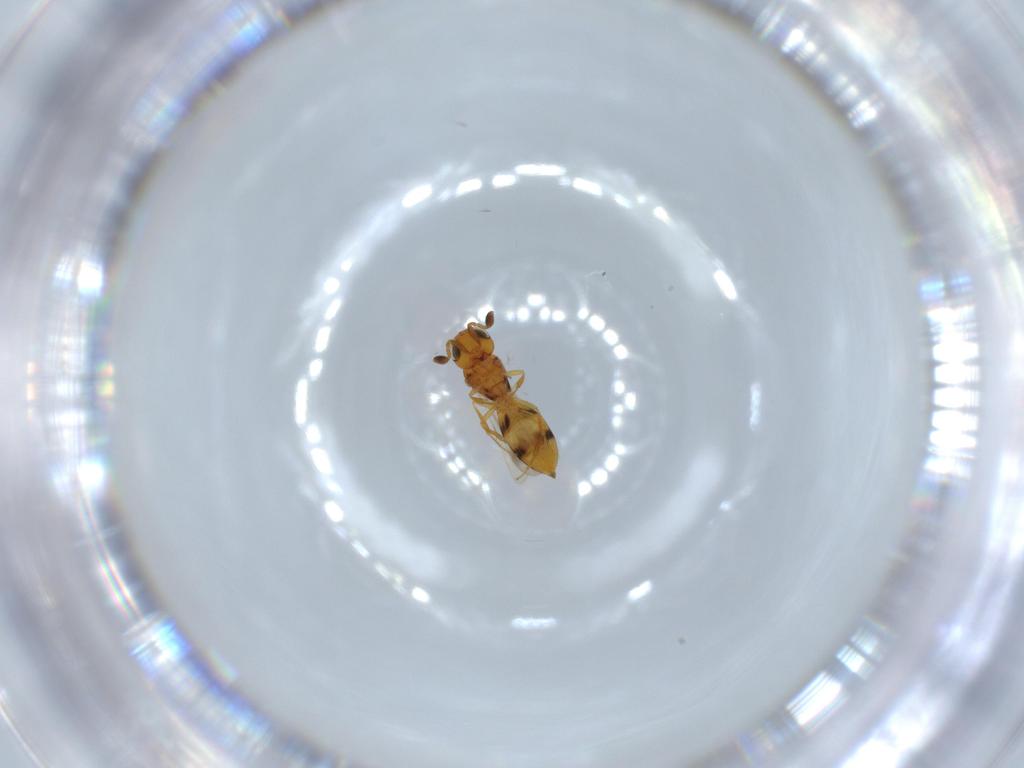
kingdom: Animalia
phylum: Arthropoda
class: Insecta
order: Hymenoptera
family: Scelionidae
